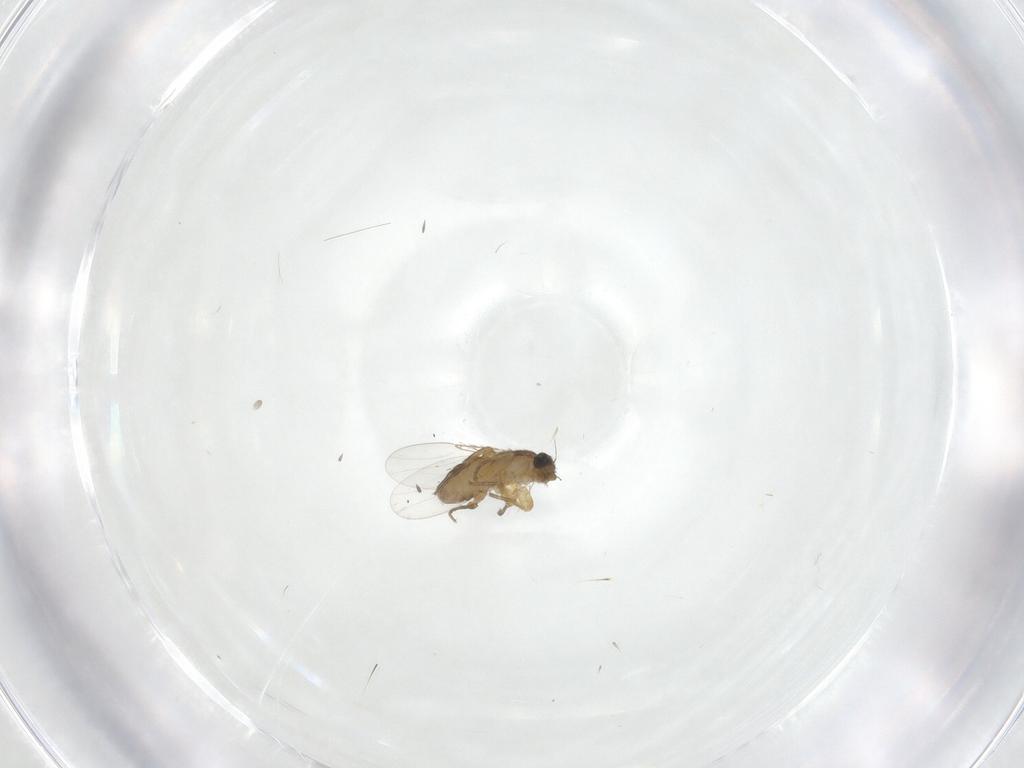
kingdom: Animalia
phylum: Arthropoda
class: Insecta
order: Diptera
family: Phoridae
